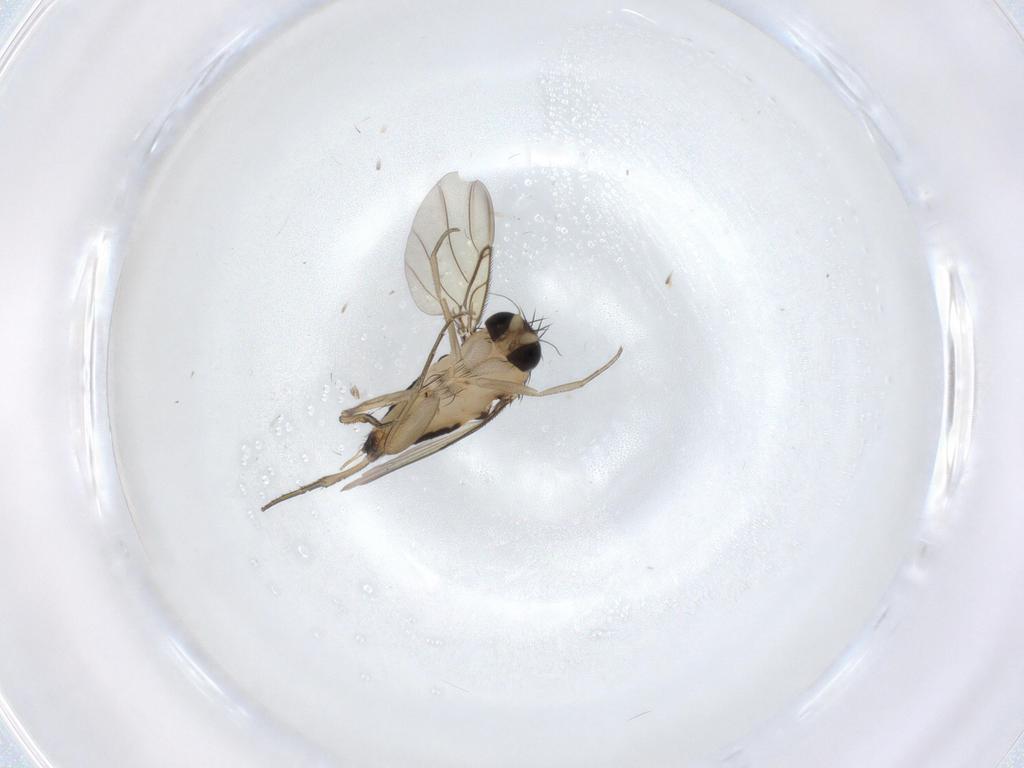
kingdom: Animalia
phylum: Arthropoda
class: Insecta
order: Diptera
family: Phoridae
